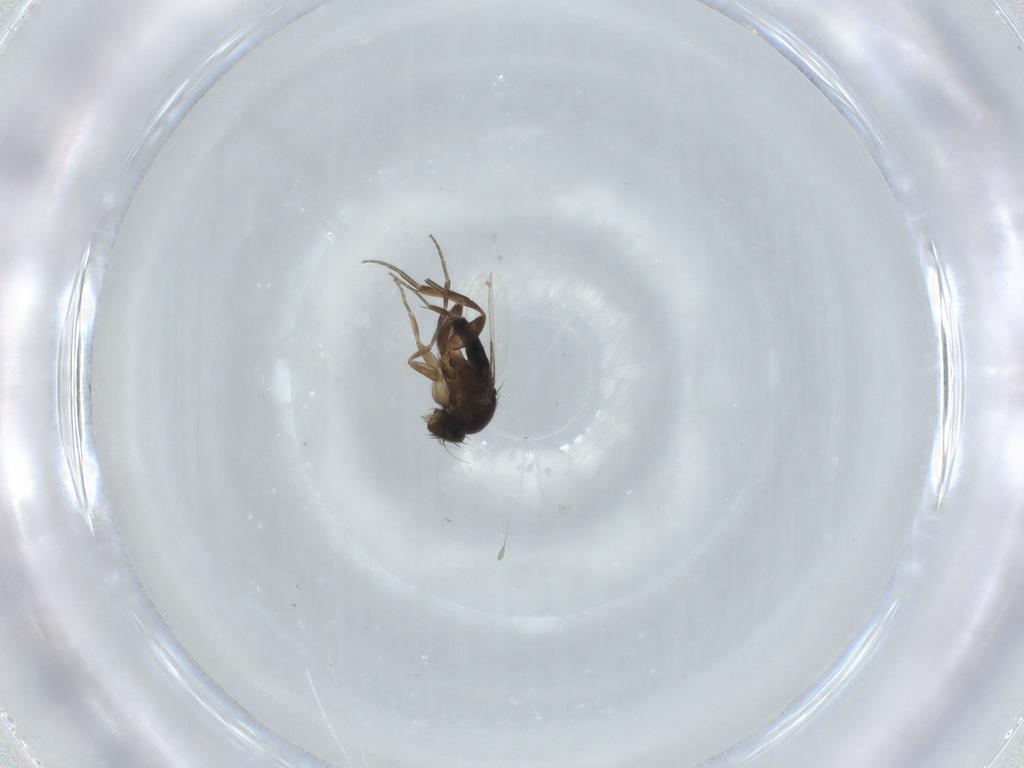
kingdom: Animalia
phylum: Arthropoda
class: Insecta
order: Diptera
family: Phoridae
